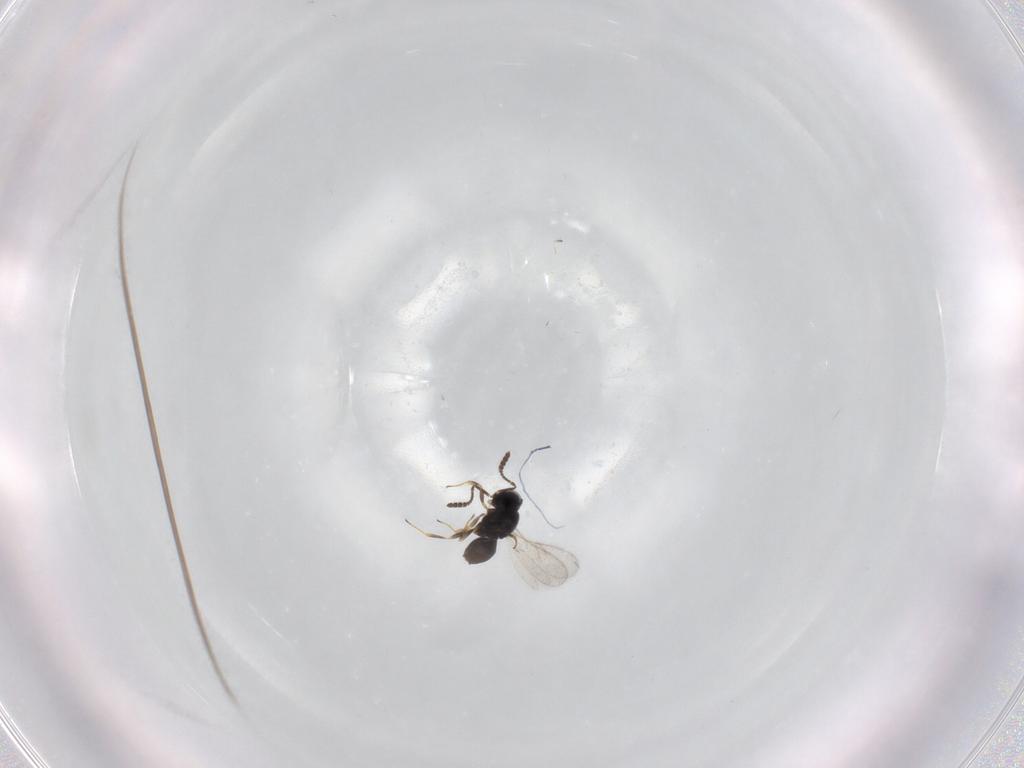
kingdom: Animalia
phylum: Arthropoda
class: Insecta
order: Hymenoptera
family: Scelionidae
